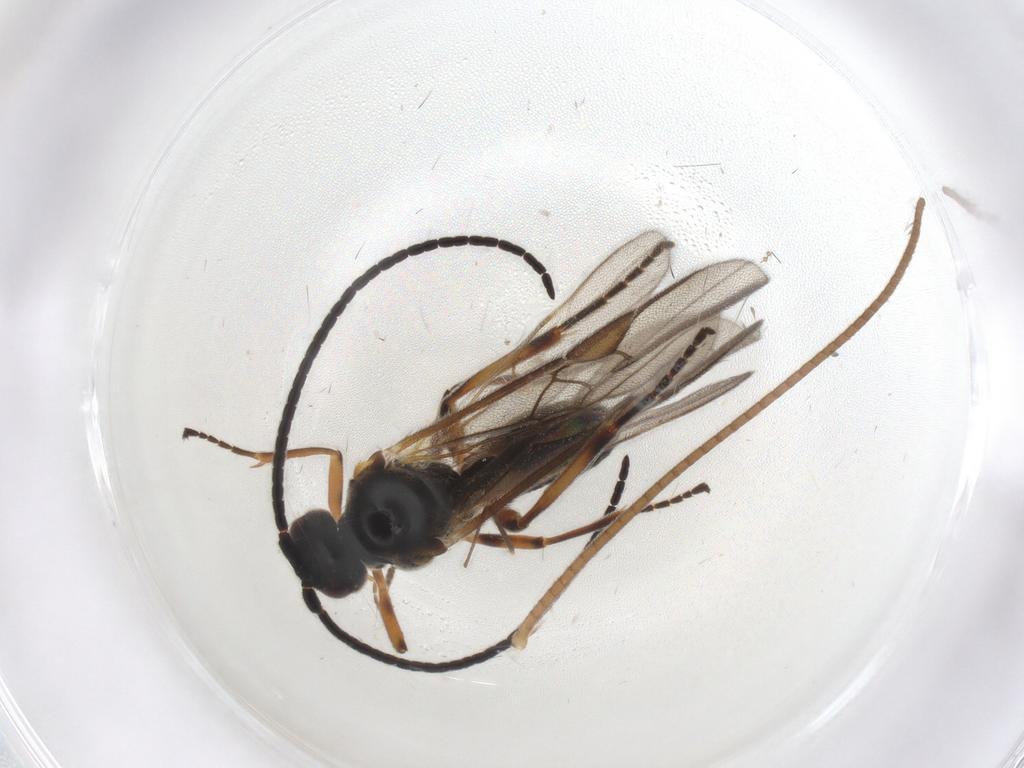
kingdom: Animalia
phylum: Arthropoda
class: Insecta
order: Hymenoptera
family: Braconidae
